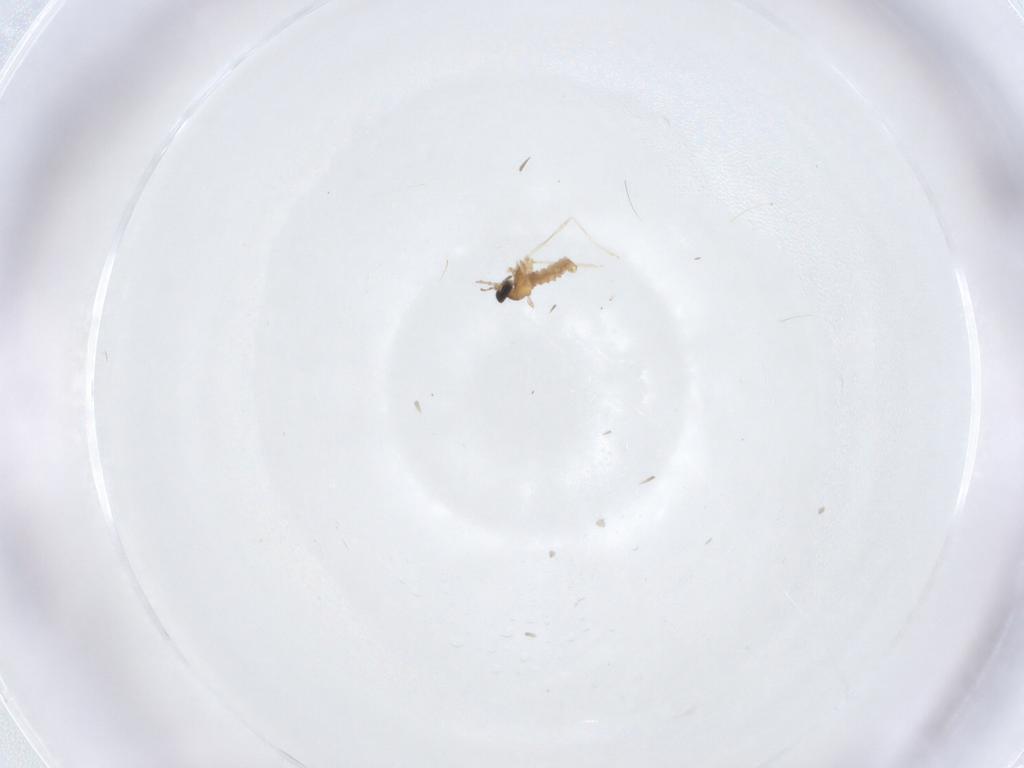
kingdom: Animalia
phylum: Arthropoda
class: Insecta
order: Diptera
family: Cecidomyiidae
